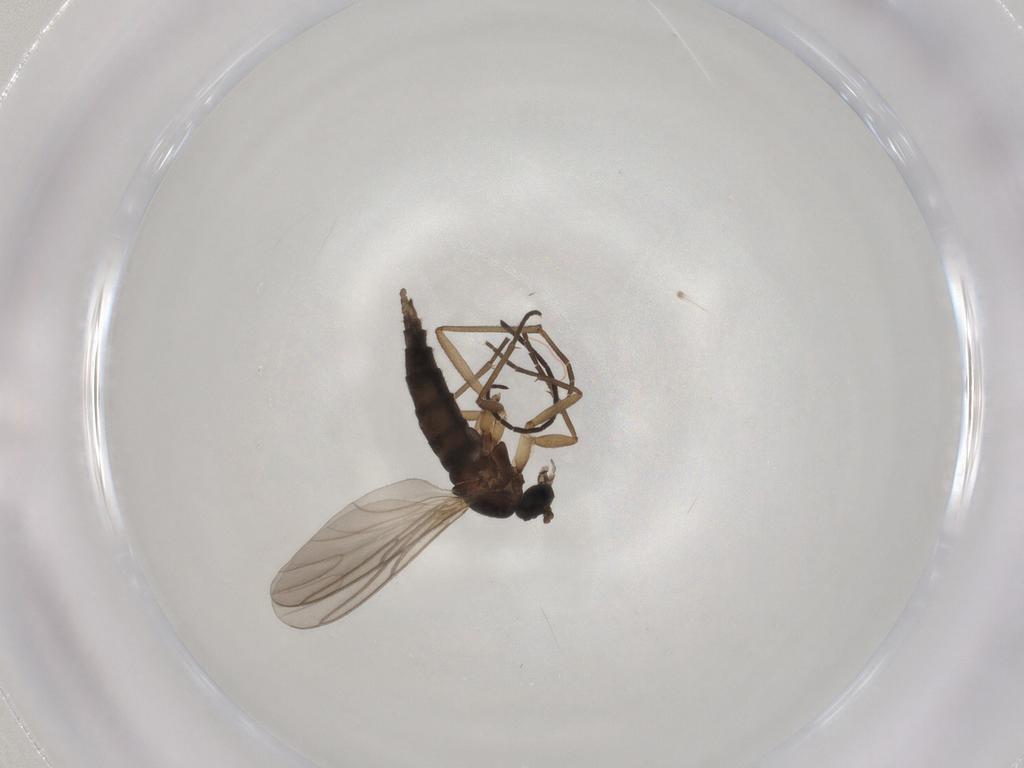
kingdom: Animalia
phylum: Arthropoda
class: Insecta
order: Diptera
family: Sciaridae
